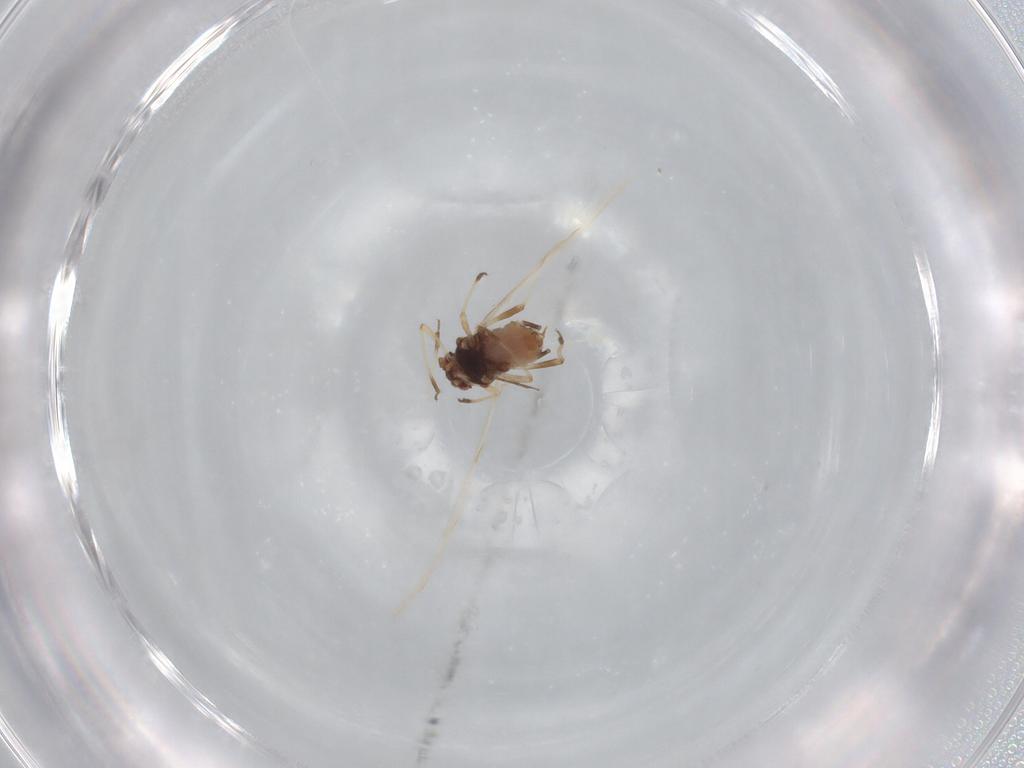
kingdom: Animalia
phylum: Arthropoda
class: Insecta
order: Hemiptera
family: Aphididae
